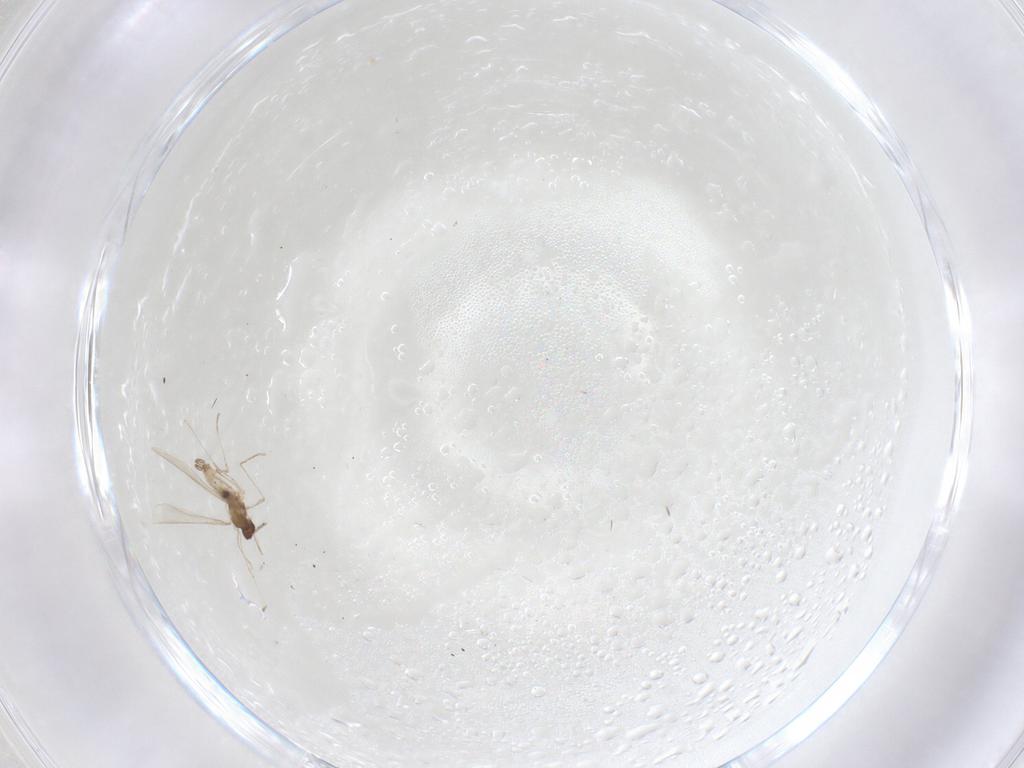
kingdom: Animalia
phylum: Arthropoda
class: Insecta
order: Diptera
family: Cecidomyiidae
